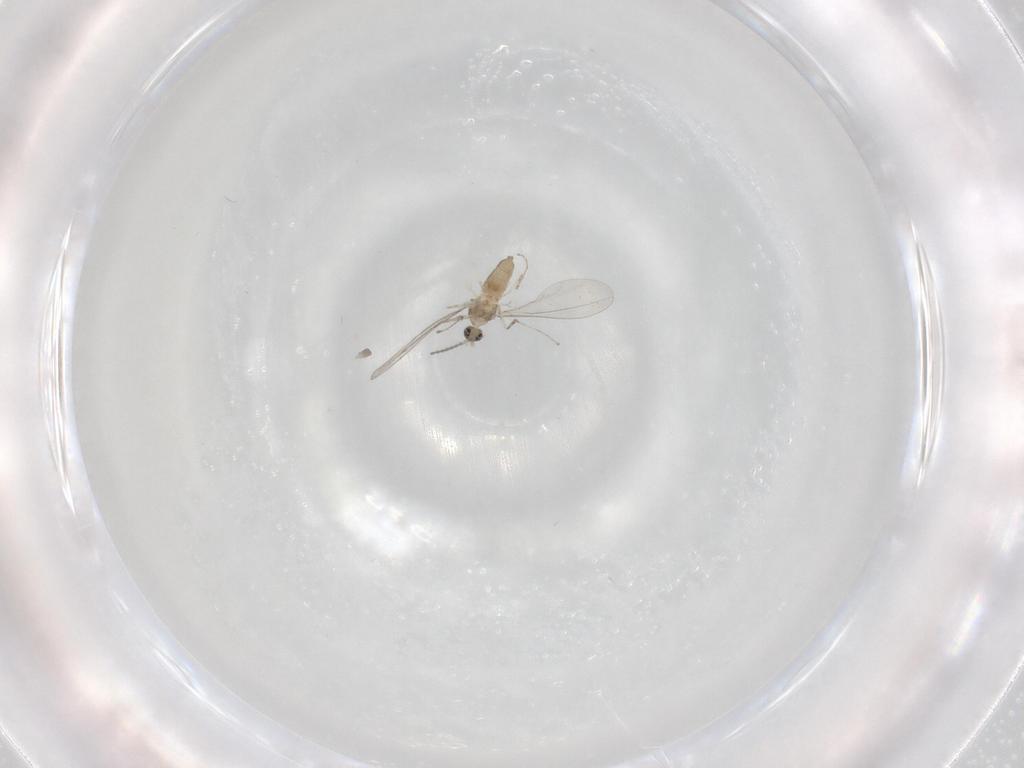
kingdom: Animalia
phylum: Arthropoda
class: Insecta
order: Diptera
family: Cecidomyiidae
